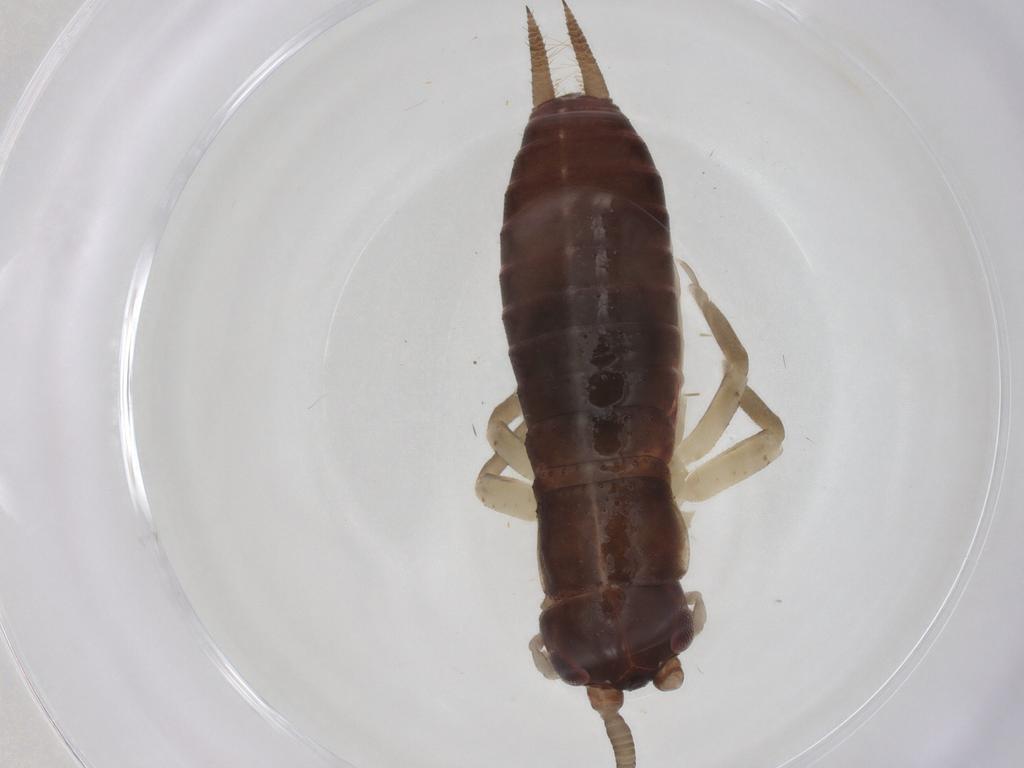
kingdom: Animalia
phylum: Arthropoda
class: Insecta
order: Orthoptera
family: Gryllidae
